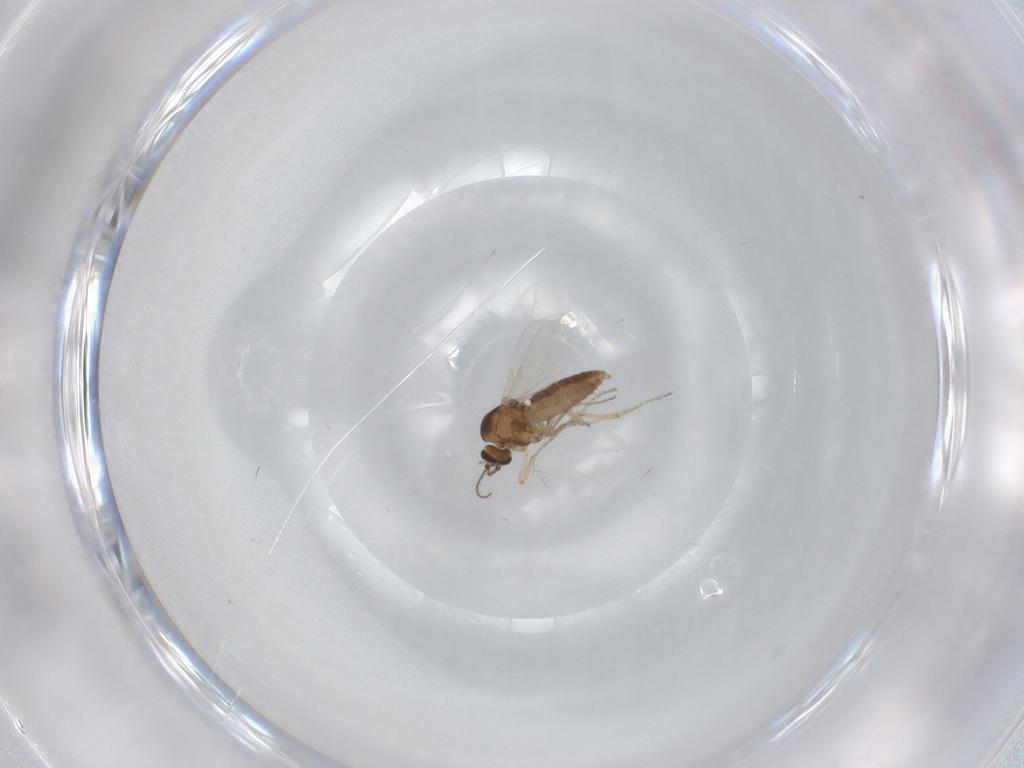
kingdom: Animalia
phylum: Arthropoda
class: Insecta
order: Diptera
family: Ceratopogonidae
